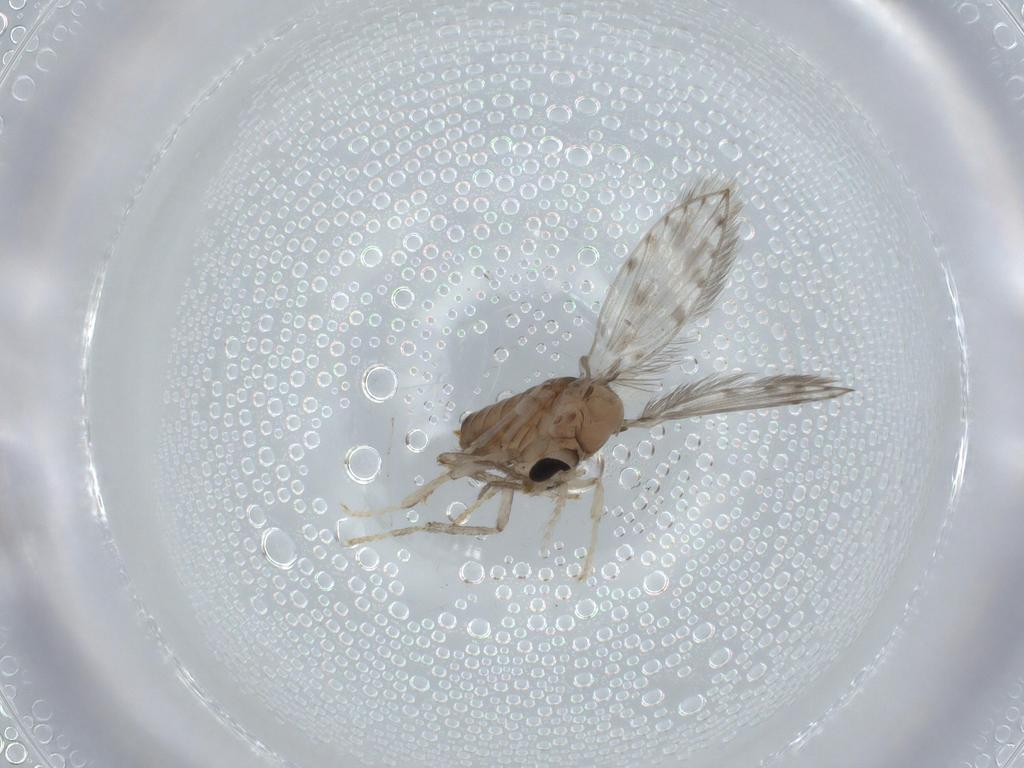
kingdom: Animalia
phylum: Arthropoda
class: Insecta
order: Diptera
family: Psychodidae
